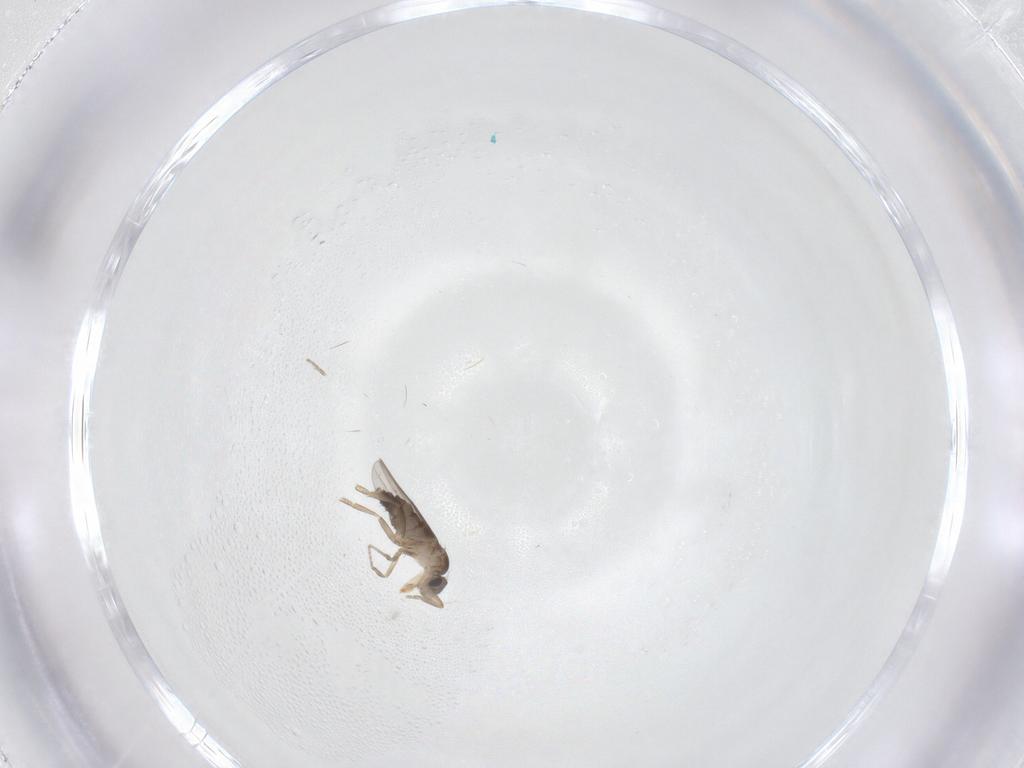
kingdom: Animalia
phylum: Arthropoda
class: Insecta
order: Diptera
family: Cecidomyiidae
